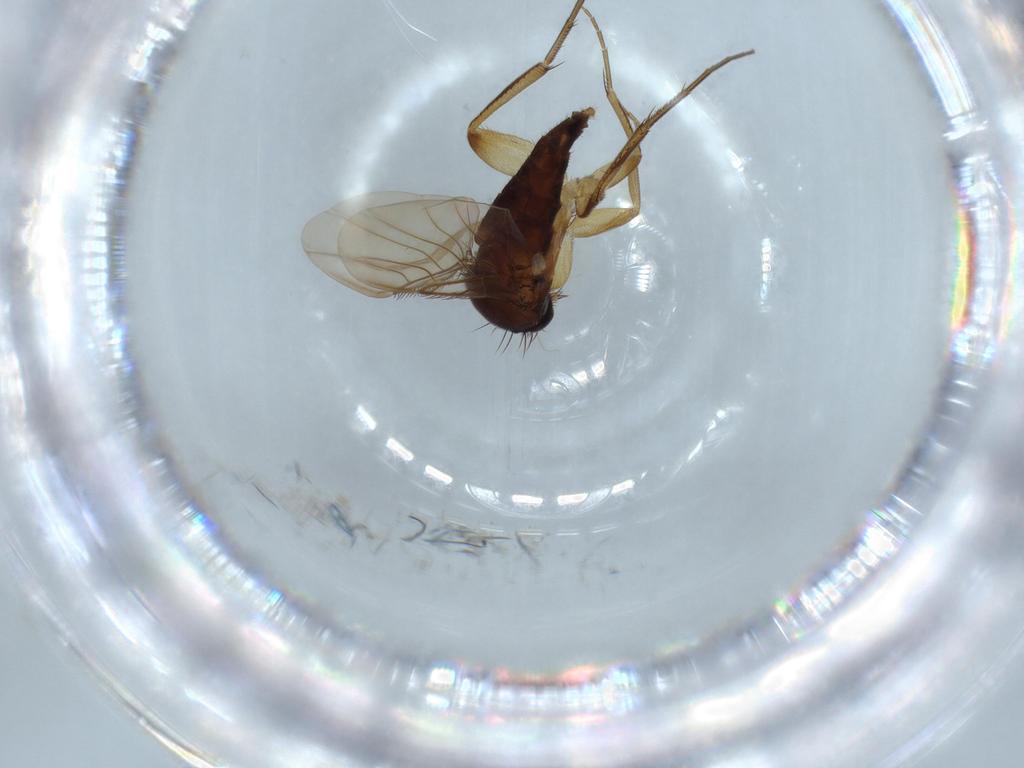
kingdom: Animalia
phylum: Arthropoda
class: Insecta
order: Diptera
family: Phoridae
